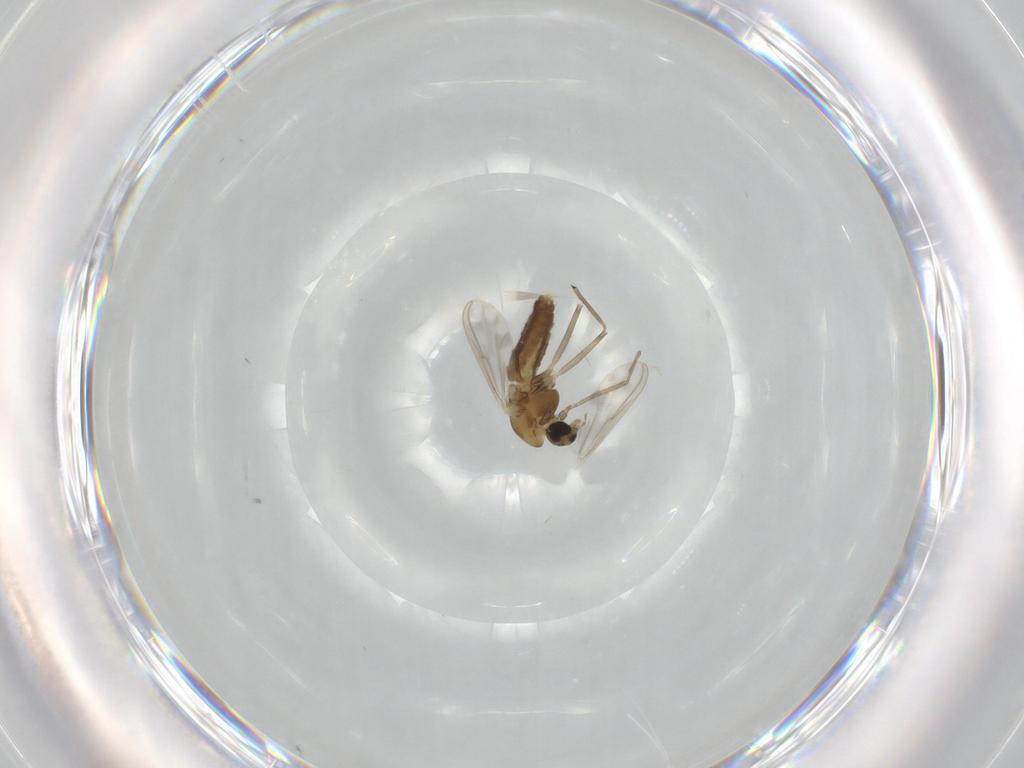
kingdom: Animalia
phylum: Arthropoda
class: Insecta
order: Diptera
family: Chironomidae
